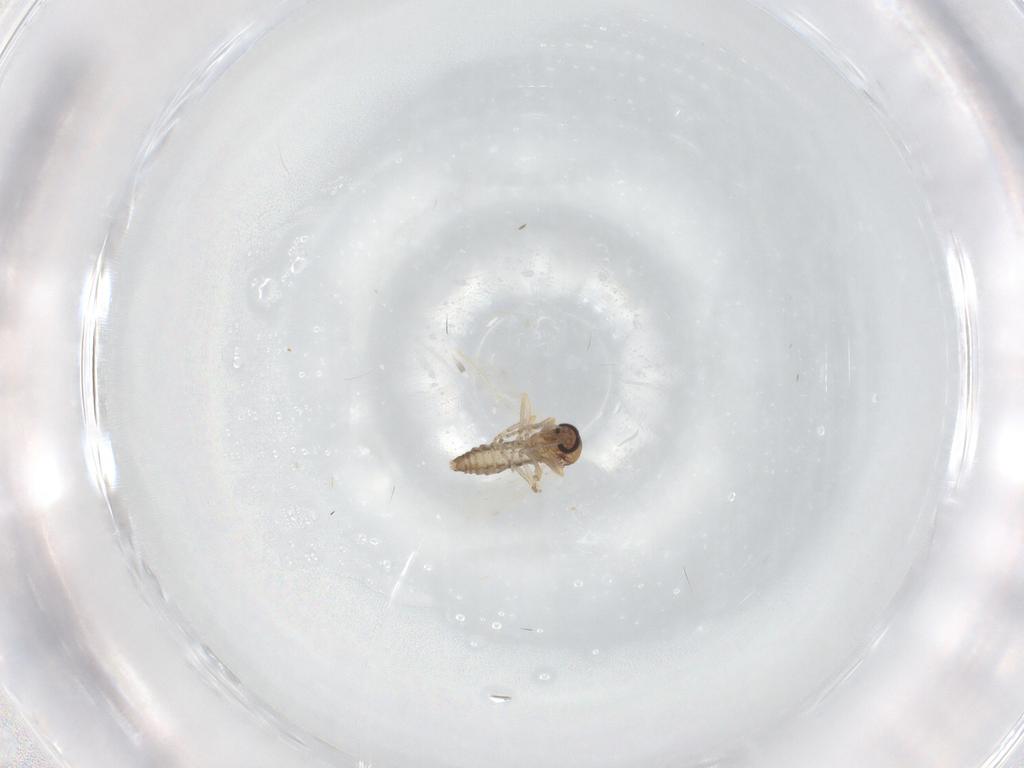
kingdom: Animalia
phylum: Arthropoda
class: Insecta
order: Diptera
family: Ceratopogonidae
